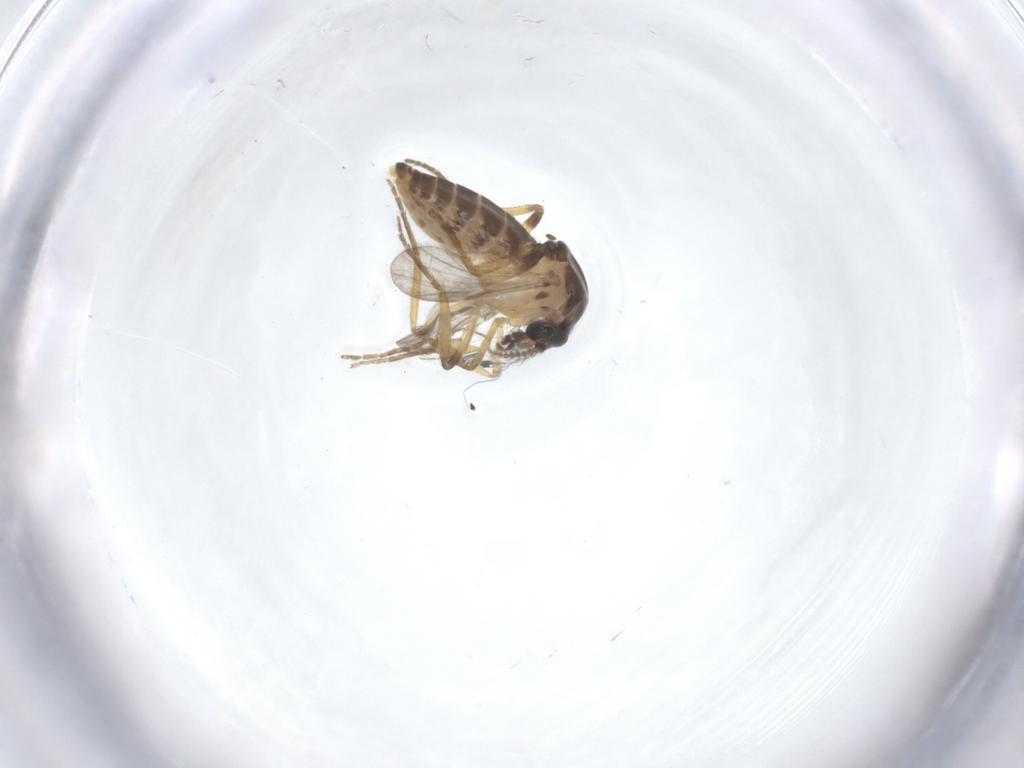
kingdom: Animalia
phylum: Arthropoda
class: Insecta
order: Diptera
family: Ceratopogonidae
